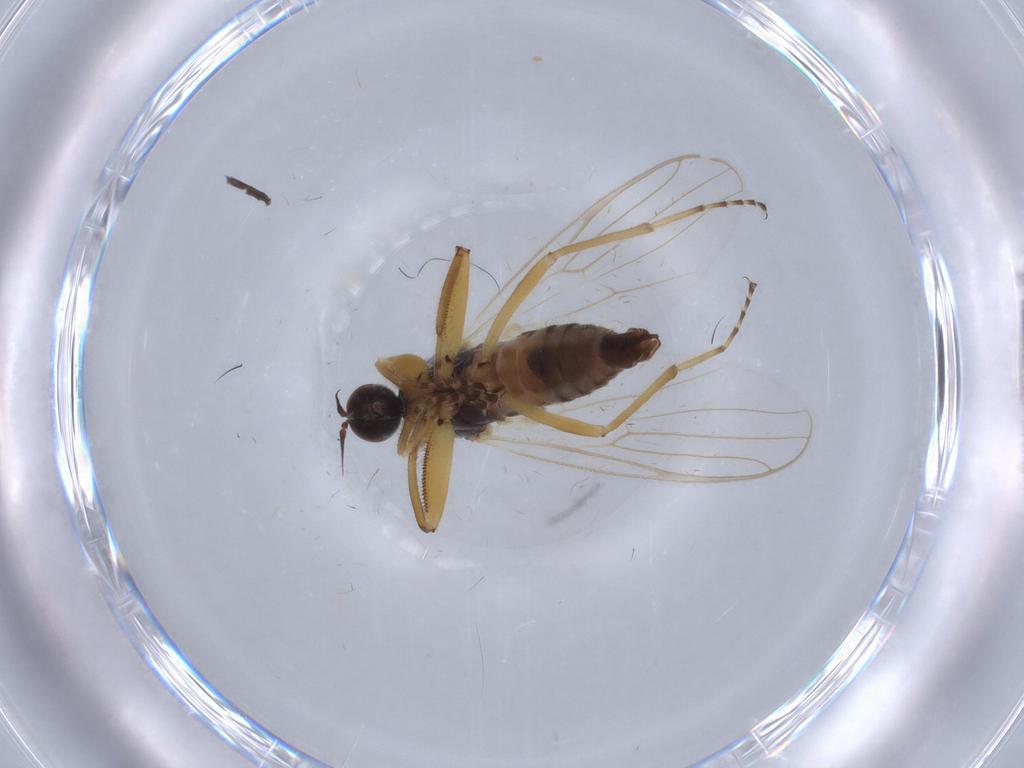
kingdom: Animalia
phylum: Arthropoda
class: Insecta
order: Diptera
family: Hybotidae
